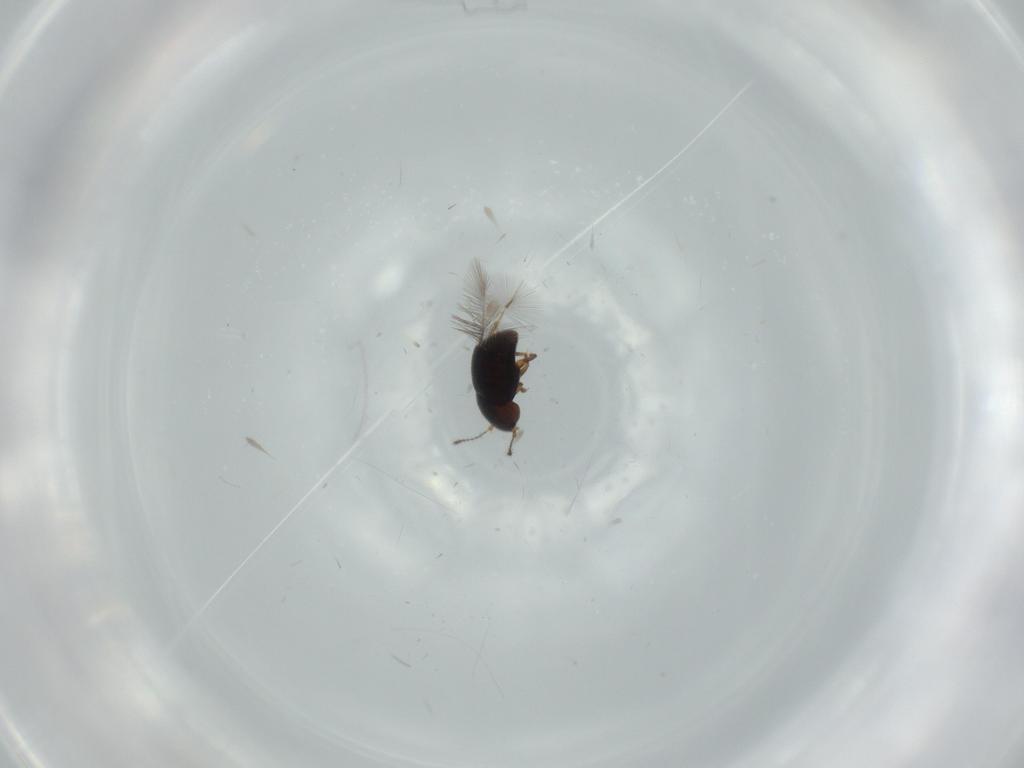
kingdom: Animalia
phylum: Arthropoda
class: Insecta
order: Coleoptera
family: Ptiliidae
